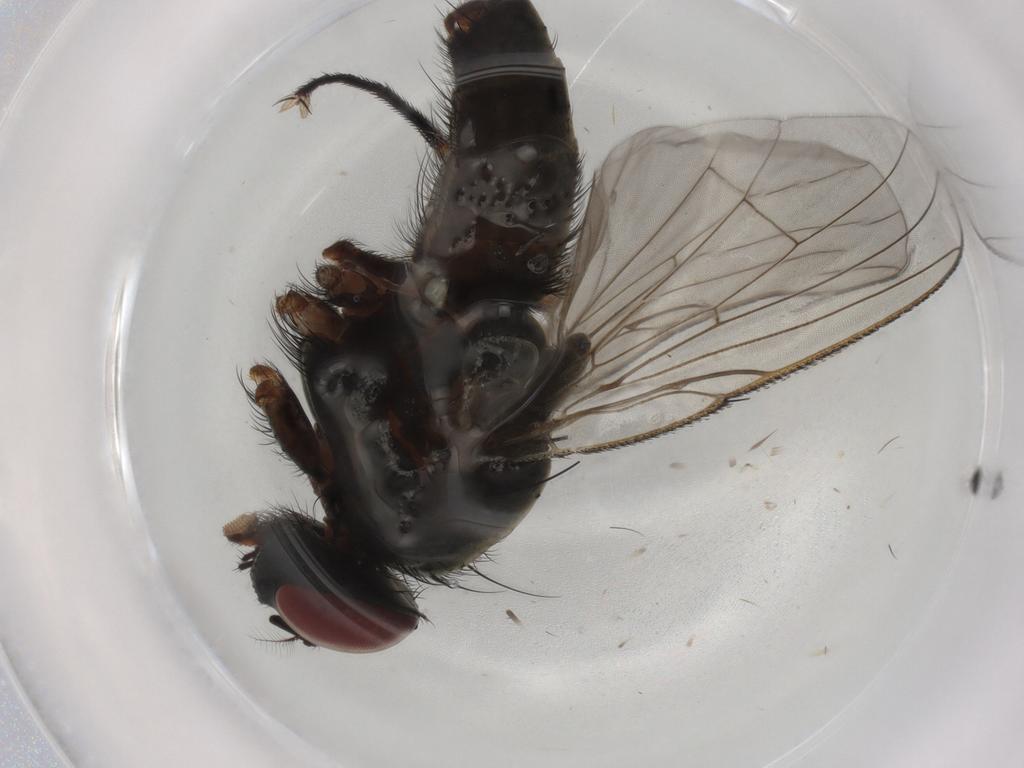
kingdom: Animalia
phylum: Arthropoda
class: Insecta
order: Diptera
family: Muscidae
